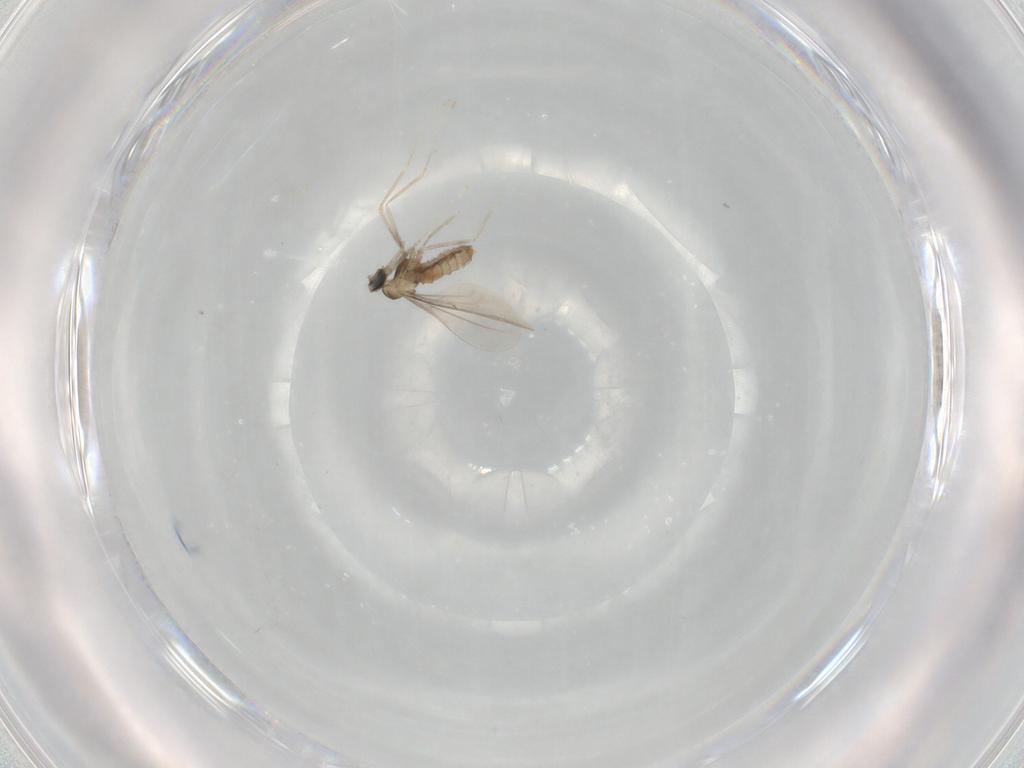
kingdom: Animalia
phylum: Arthropoda
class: Insecta
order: Diptera
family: Cecidomyiidae
